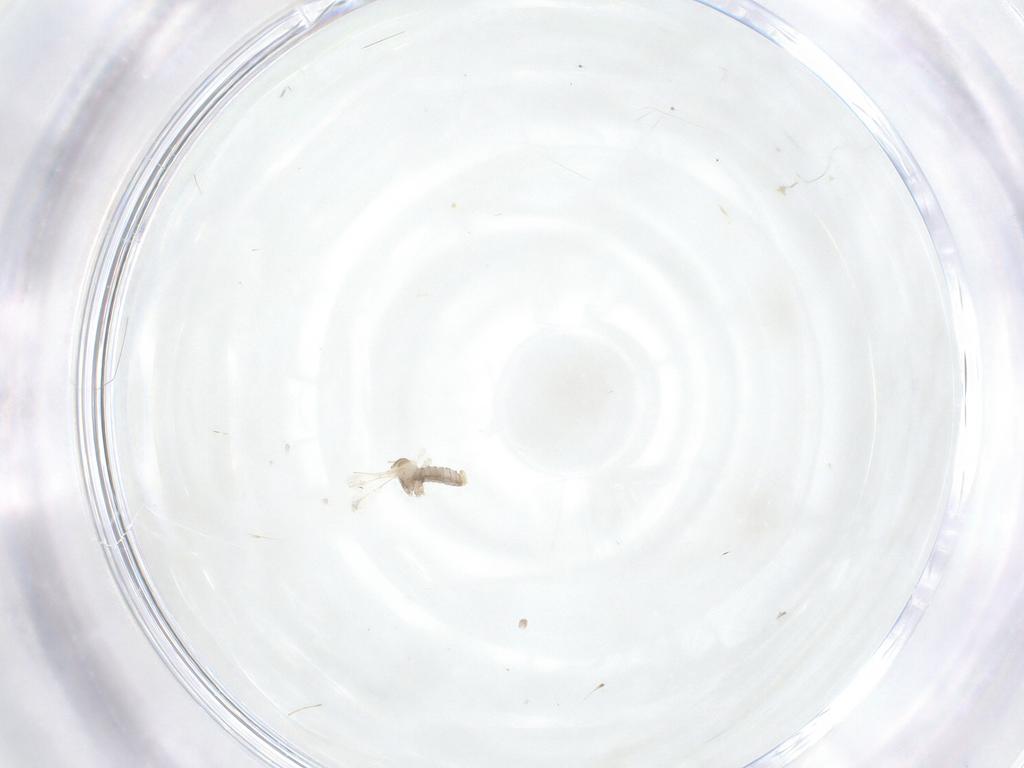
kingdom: Animalia
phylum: Arthropoda
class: Insecta
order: Diptera
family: Cecidomyiidae
